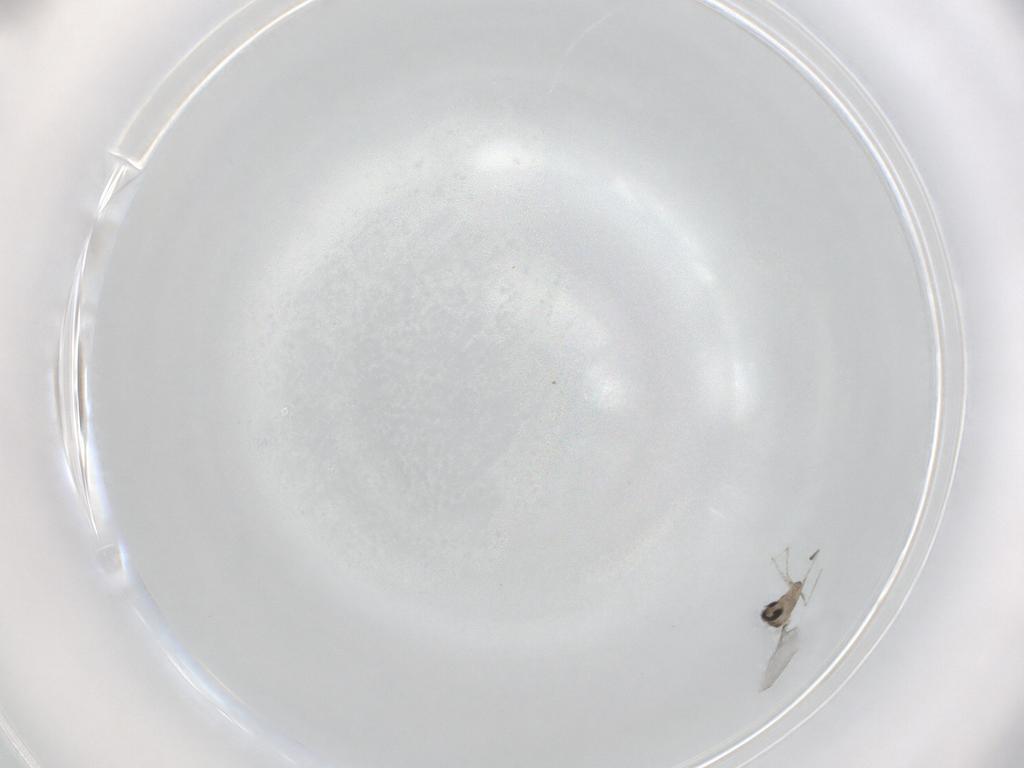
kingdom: Animalia
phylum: Arthropoda
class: Insecta
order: Diptera
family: Cecidomyiidae
